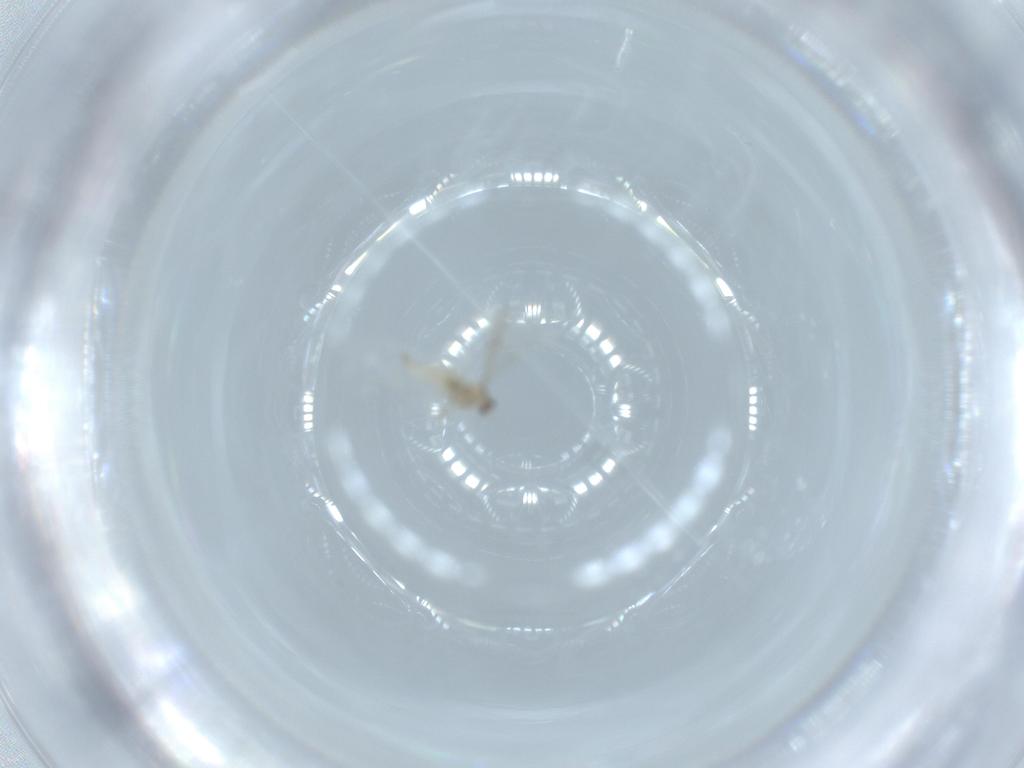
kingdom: Animalia
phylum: Arthropoda
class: Insecta
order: Diptera
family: Cecidomyiidae
